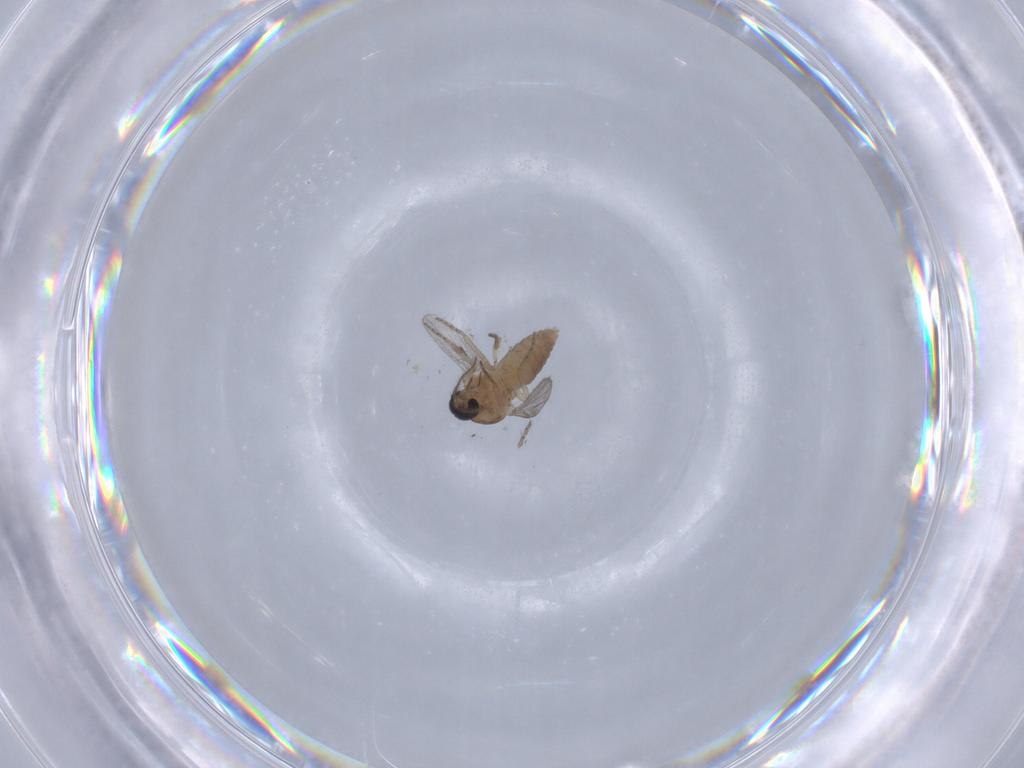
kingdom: Animalia
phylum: Arthropoda
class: Insecta
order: Diptera
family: Ceratopogonidae
